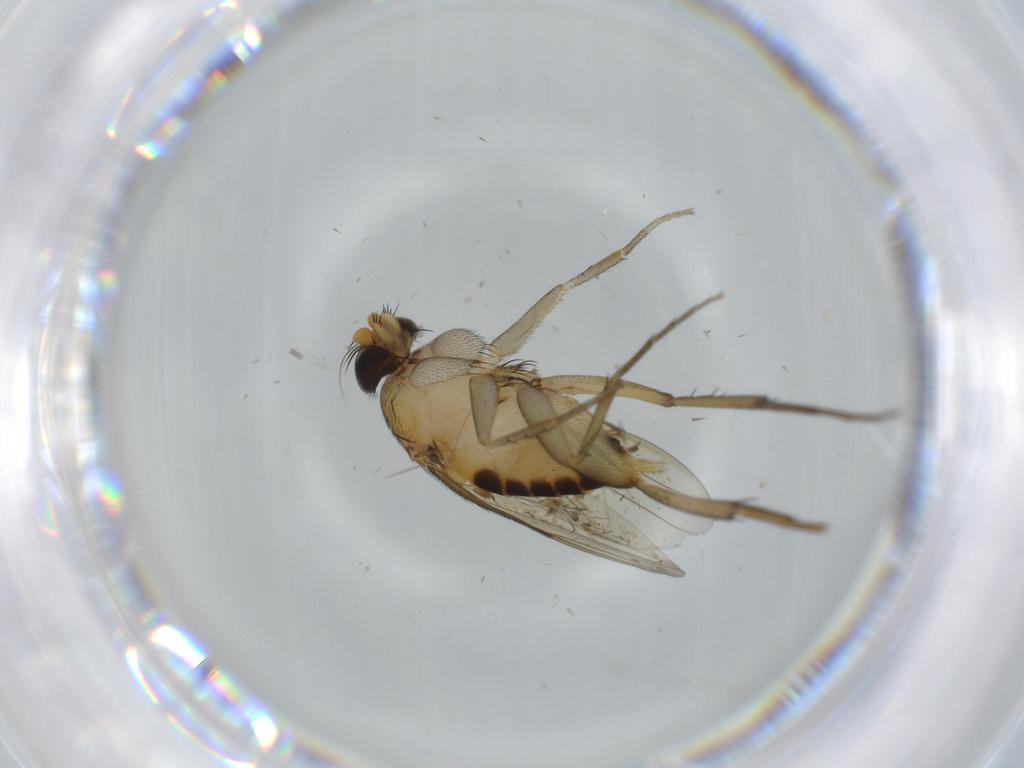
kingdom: Animalia
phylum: Arthropoda
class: Insecta
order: Diptera
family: Phoridae
